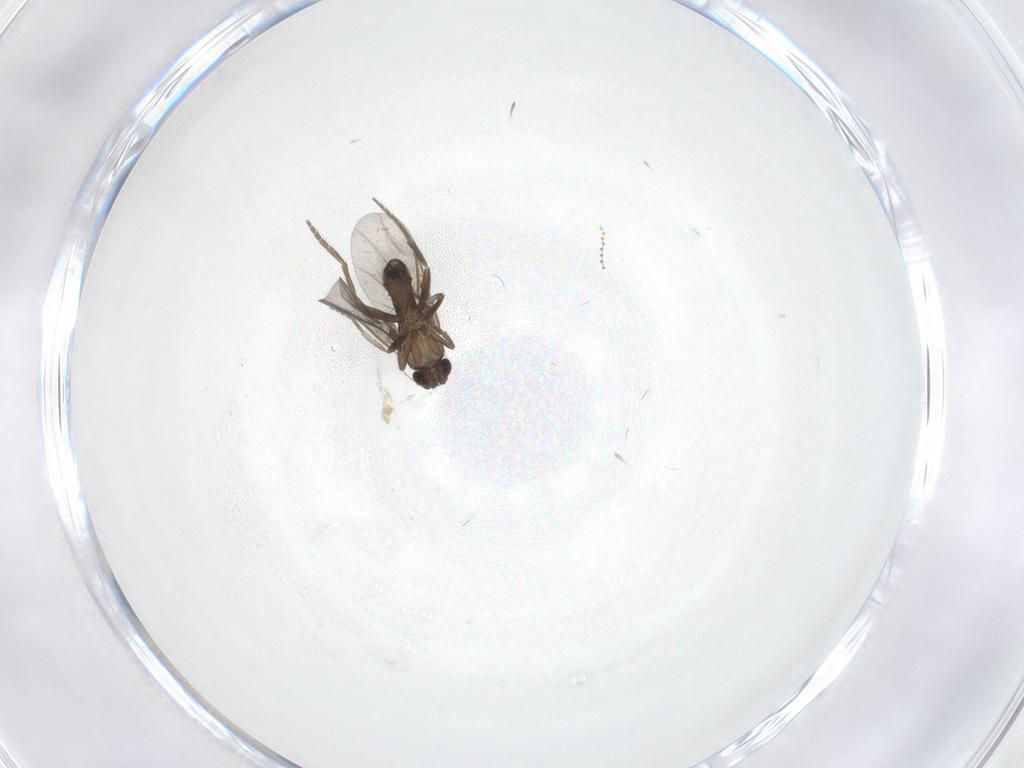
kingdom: Animalia
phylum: Arthropoda
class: Insecta
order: Diptera
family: Phoridae
